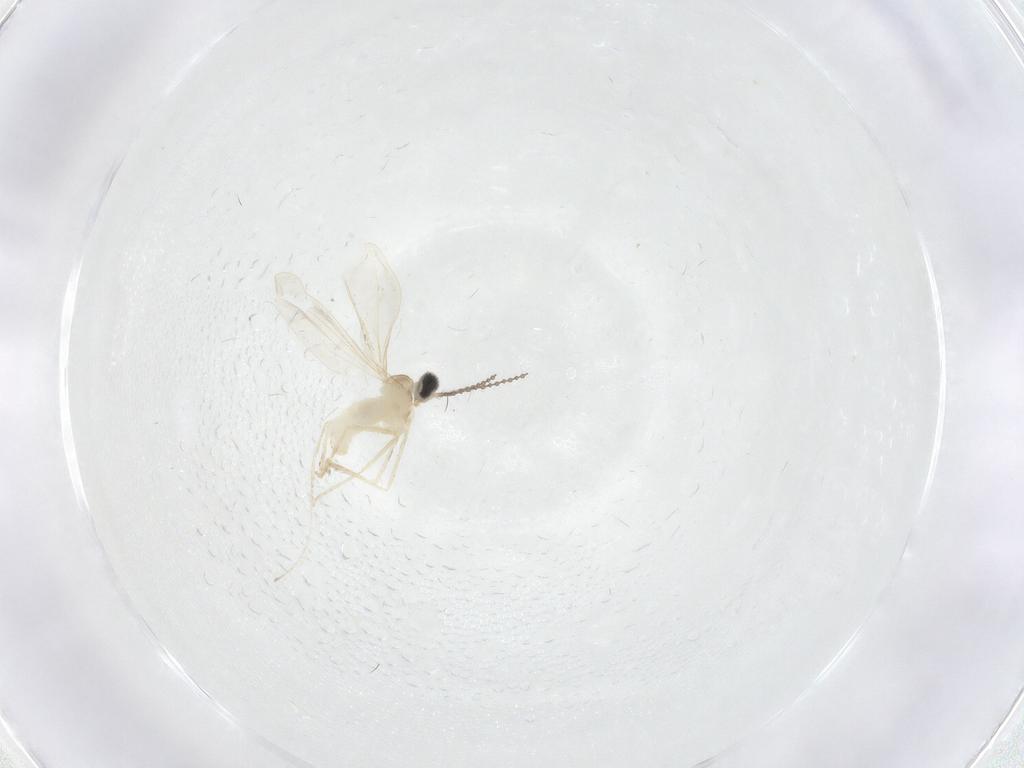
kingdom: Animalia
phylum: Arthropoda
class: Insecta
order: Diptera
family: Cecidomyiidae
